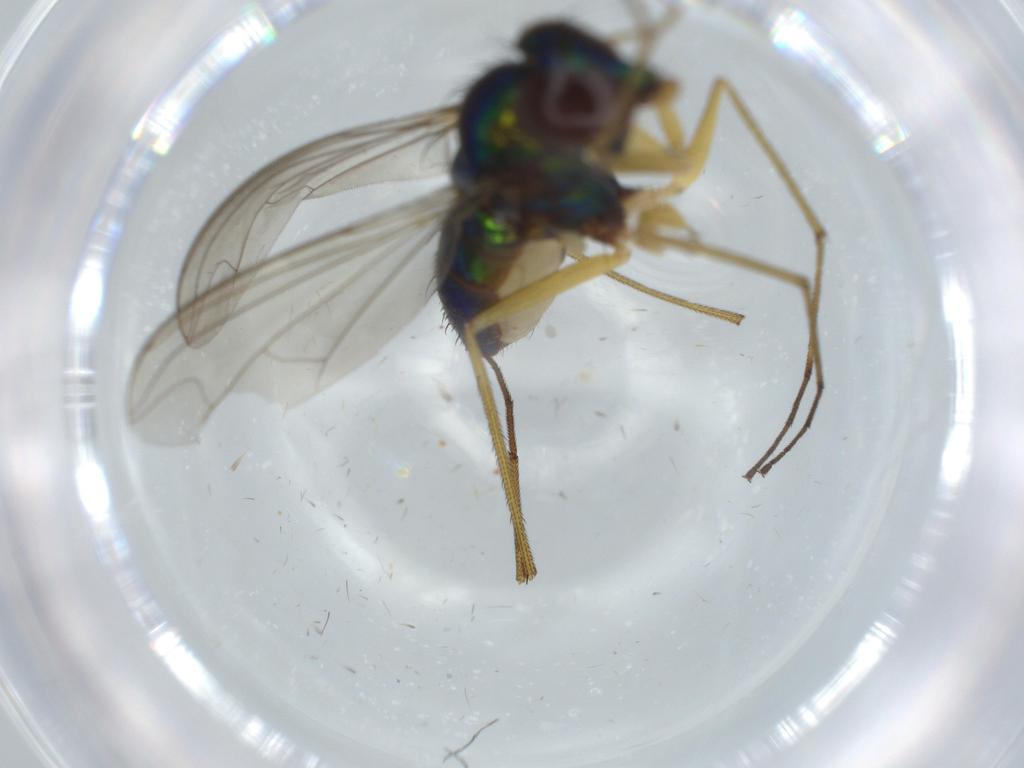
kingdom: Animalia
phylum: Arthropoda
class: Insecta
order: Diptera
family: Dolichopodidae
